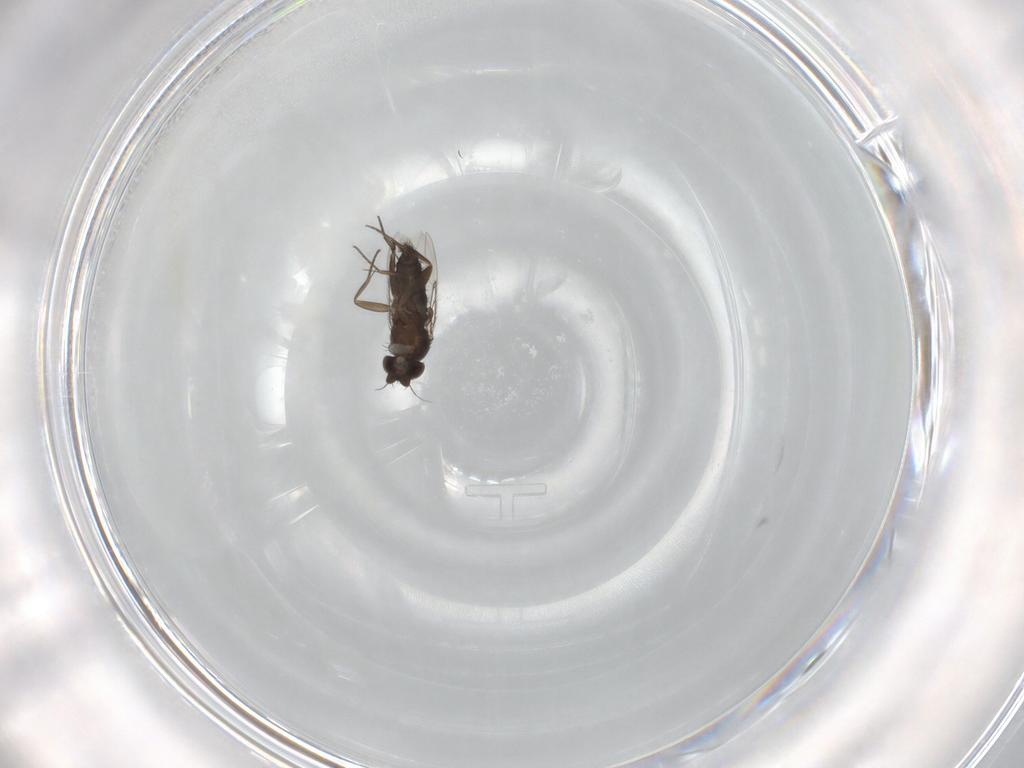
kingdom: Animalia
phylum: Arthropoda
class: Insecta
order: Diptera
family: Phoridae
